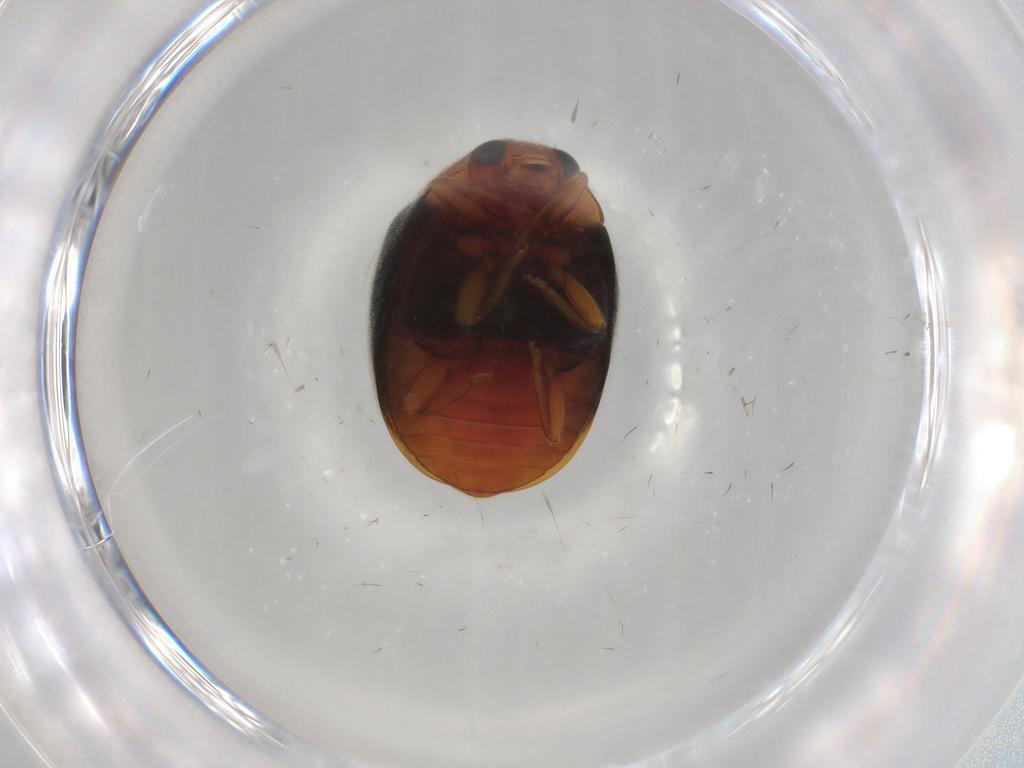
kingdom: Animalia
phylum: Arthropoda
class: Insecta
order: Coleoptera
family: Coccinellidae
